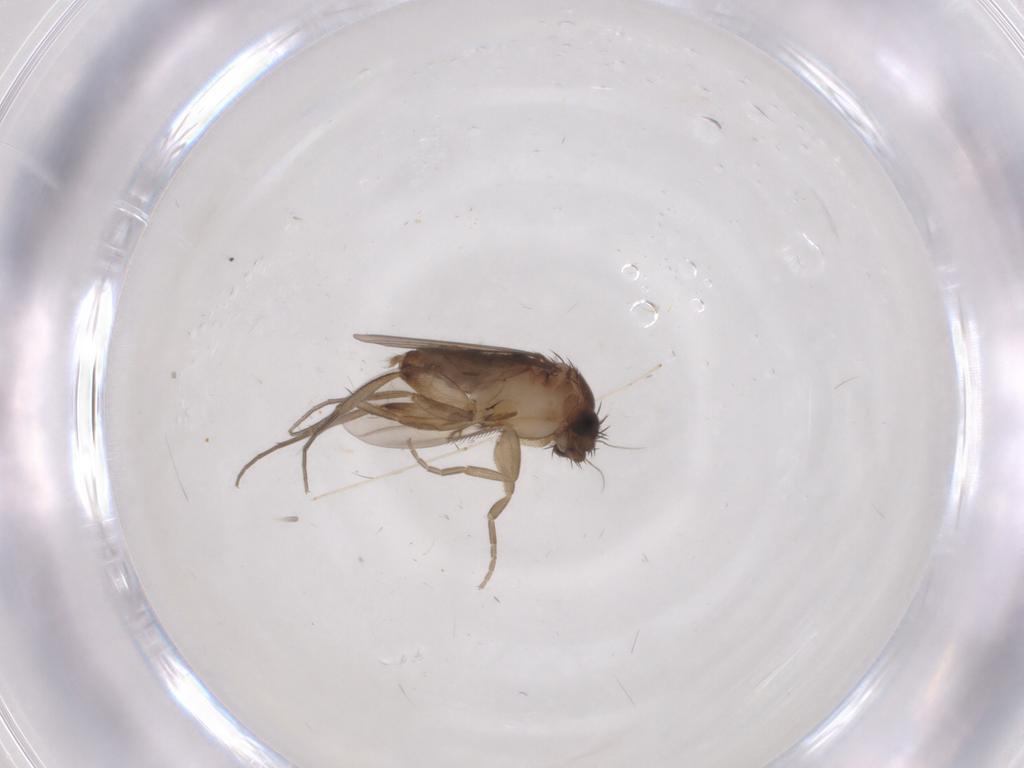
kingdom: Animalia
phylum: Arthropoda
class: Insecta
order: Diptera
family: Phoridae
